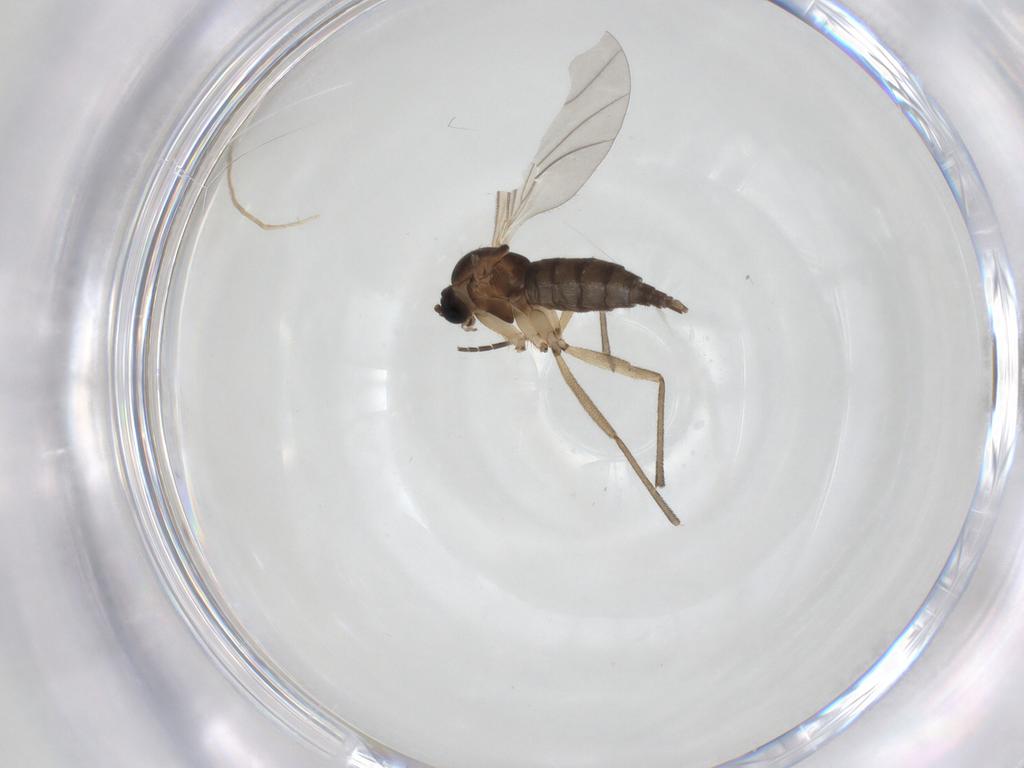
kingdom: Animalia
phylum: Arthropoda
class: Insecta
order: Diptera
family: Sciaridae
